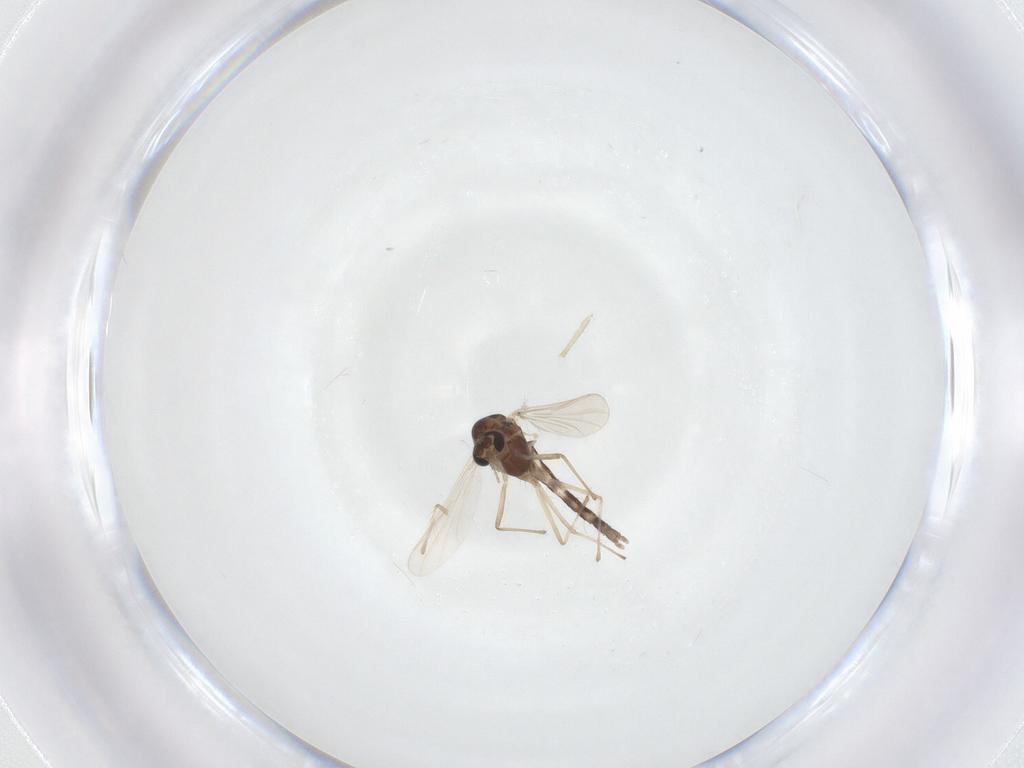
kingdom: Animalia
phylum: Arthropoda
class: Insecta
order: Diptera
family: Chironomidae
